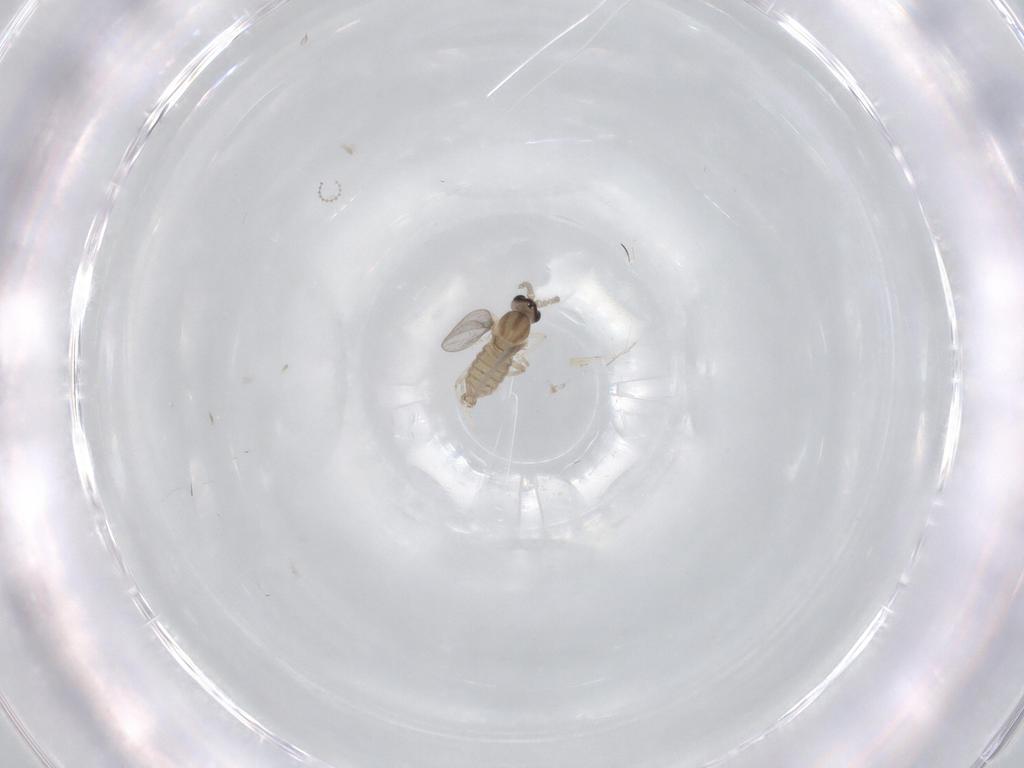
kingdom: Animalia
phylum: Arthropoda
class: Insecta
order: Diptera
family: Cecidomyiidae
